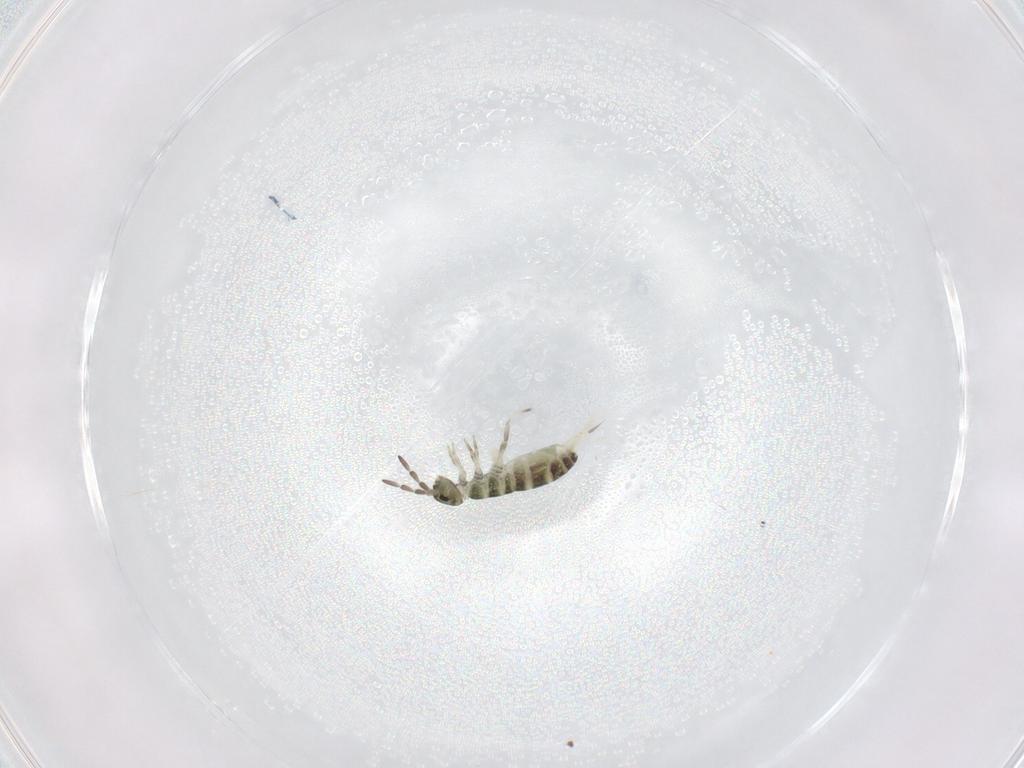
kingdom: Animalia
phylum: Arthropoda
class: Collembola
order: Entomobryomorpha
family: Isotomidae
